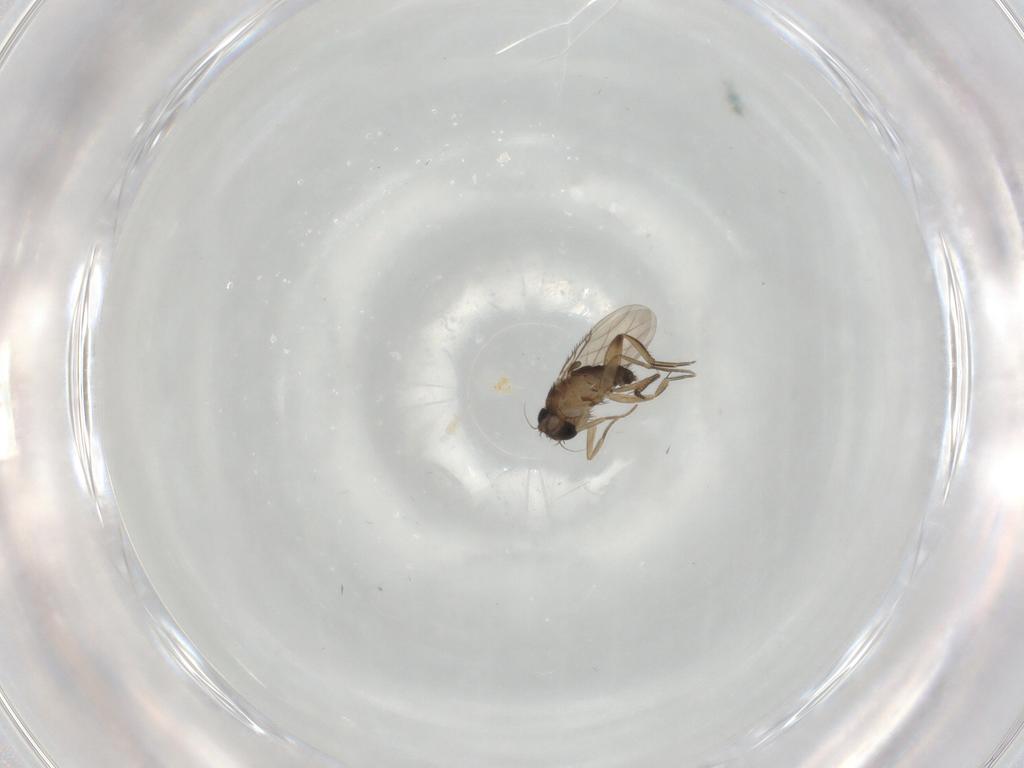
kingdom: Animalia
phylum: Arthropoda
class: Insecta
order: Diptera
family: Phoridae
